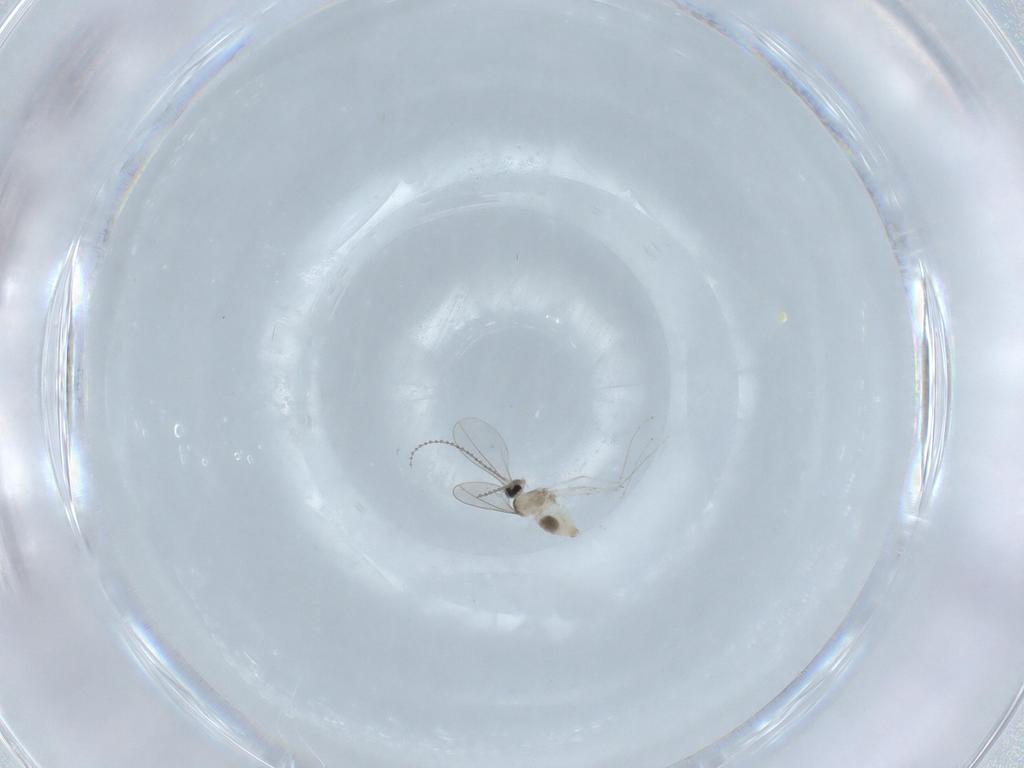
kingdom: Animalia
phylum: Arthropoda
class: Insecta
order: Diptera
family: Cecidomyiidae
